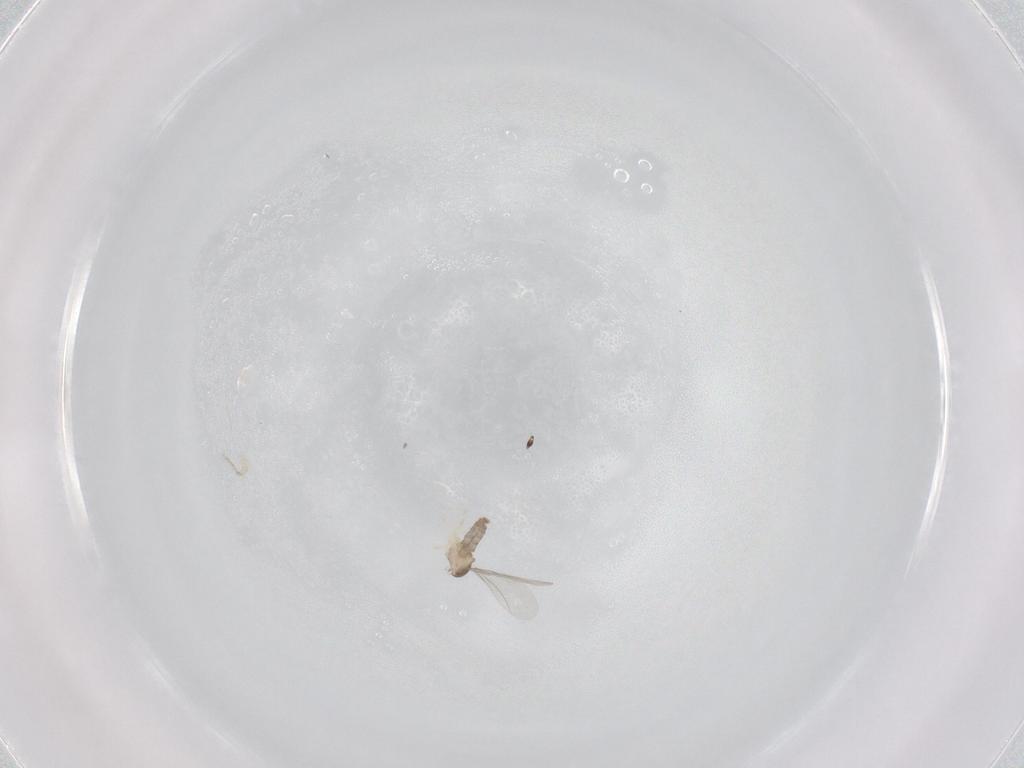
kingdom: Animalia
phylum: Arthropoda
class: Insecta
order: Diptera
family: Cecidomyiidae
